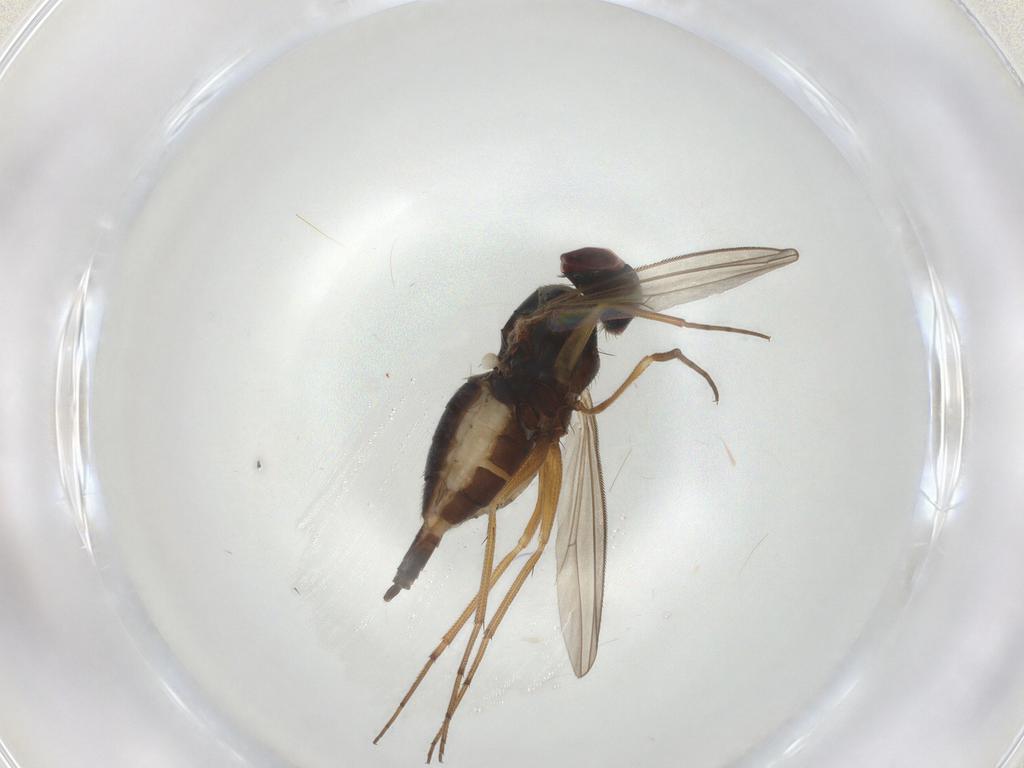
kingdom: Animalia
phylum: Arthropoda
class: Insecta
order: Diptera
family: Dolichopodidae
